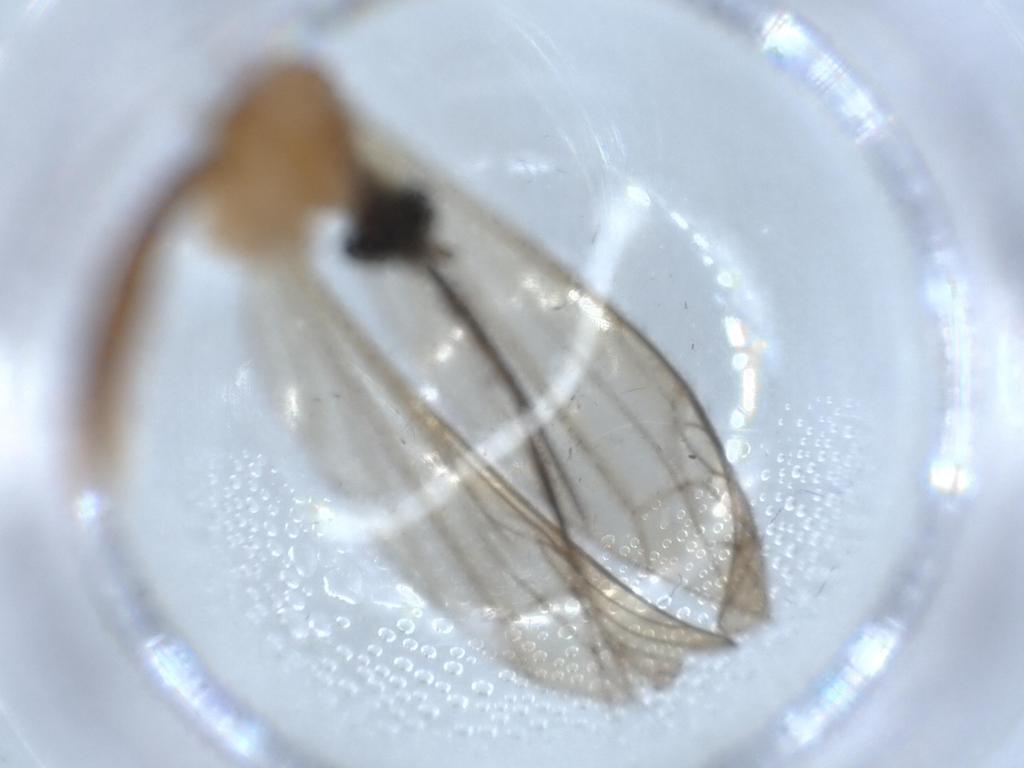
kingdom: Animalia
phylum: Arthropoda
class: Insecta
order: Diptera
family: Sciaridae
